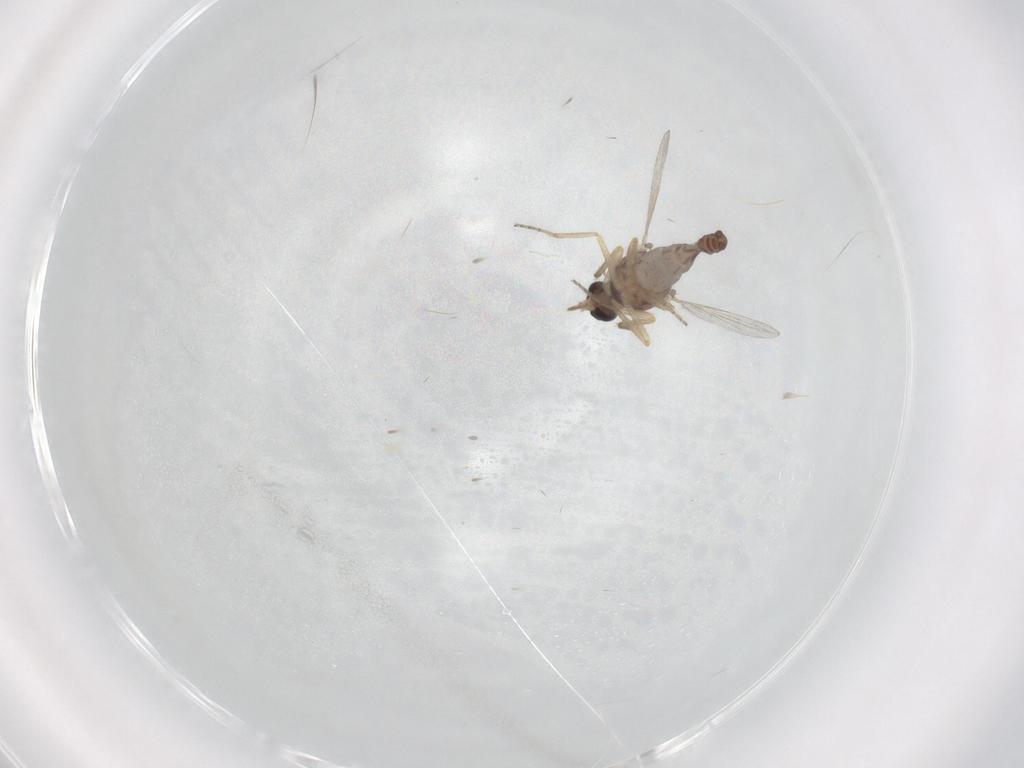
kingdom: Animalia
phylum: Arthropoda
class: Insecta
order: Diptera
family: Ceratopogonidae
